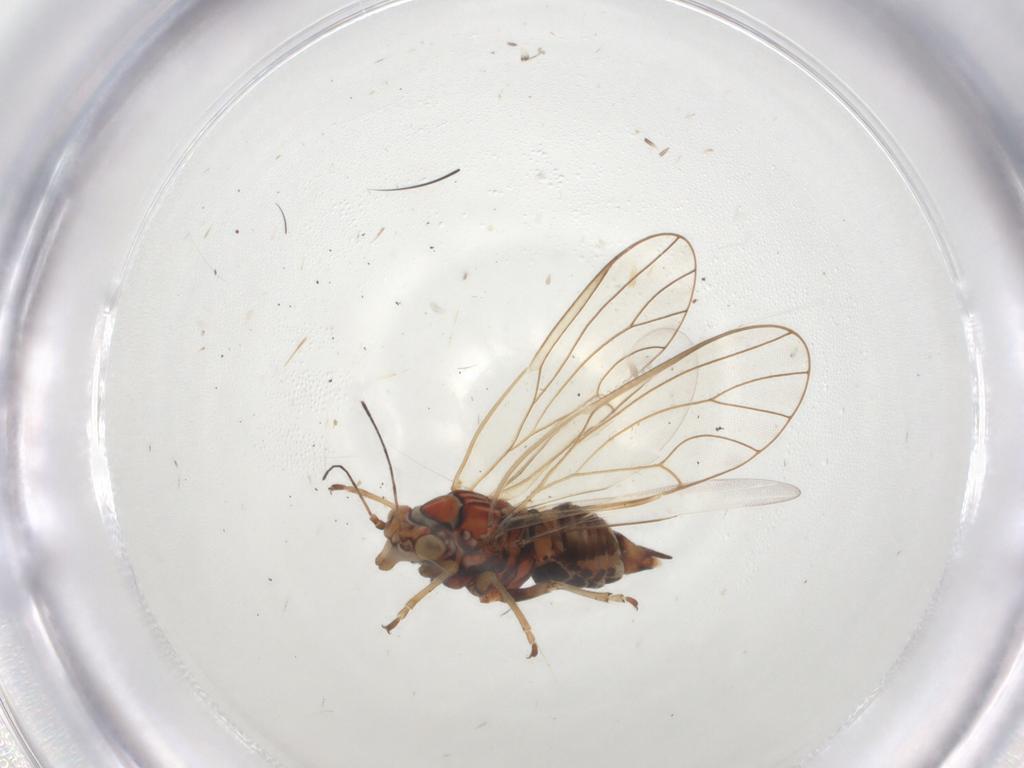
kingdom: Animalia
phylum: Arthropoda
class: Insecta
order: Hemiptera
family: Psyllidae
